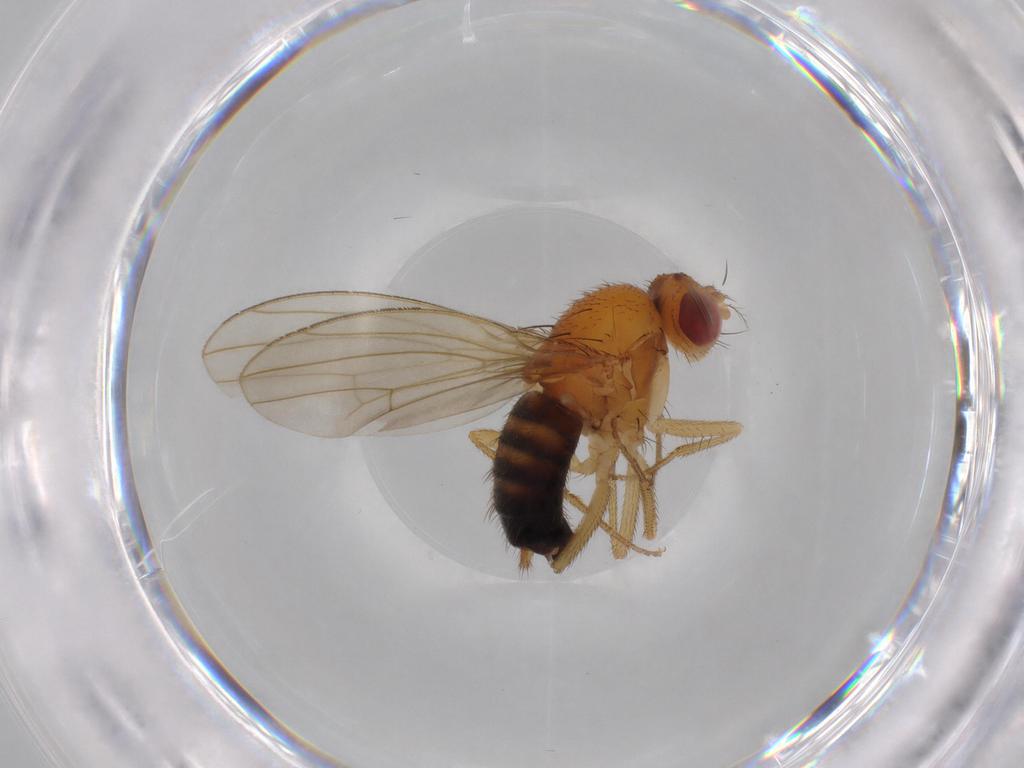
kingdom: Animalia
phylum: Arthropoda
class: Insecta
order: Diptera
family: Drosophilidae
